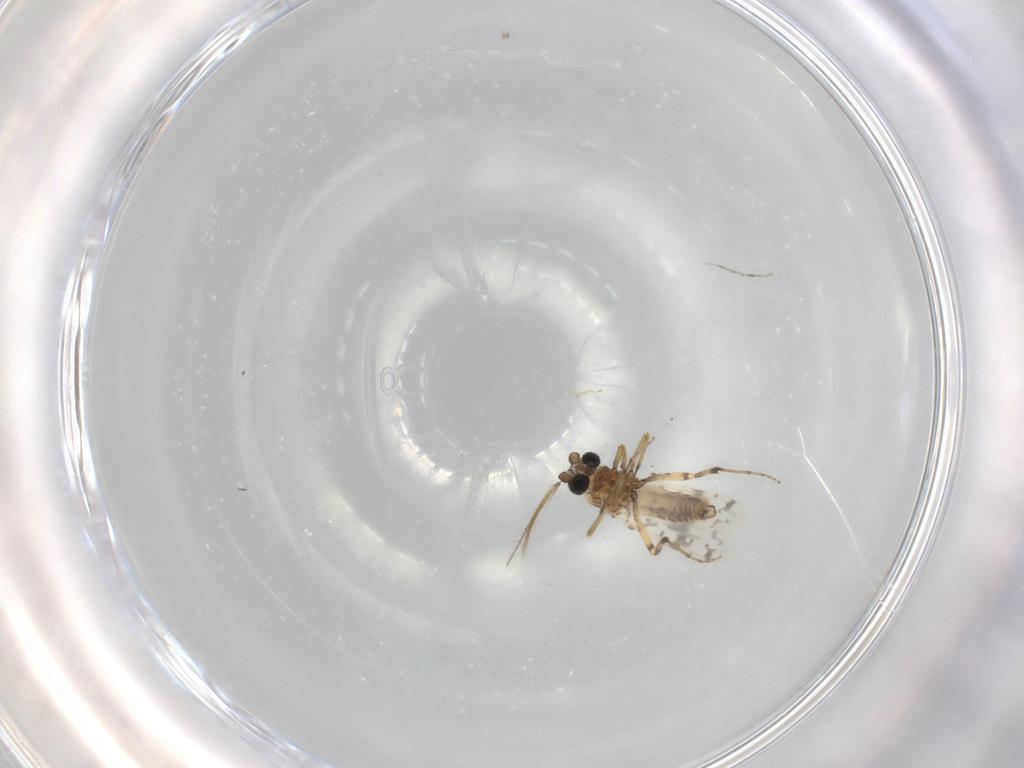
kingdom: Animalia
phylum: Arthropoda
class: Insecta
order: Diptera
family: Ceratopogonidae
